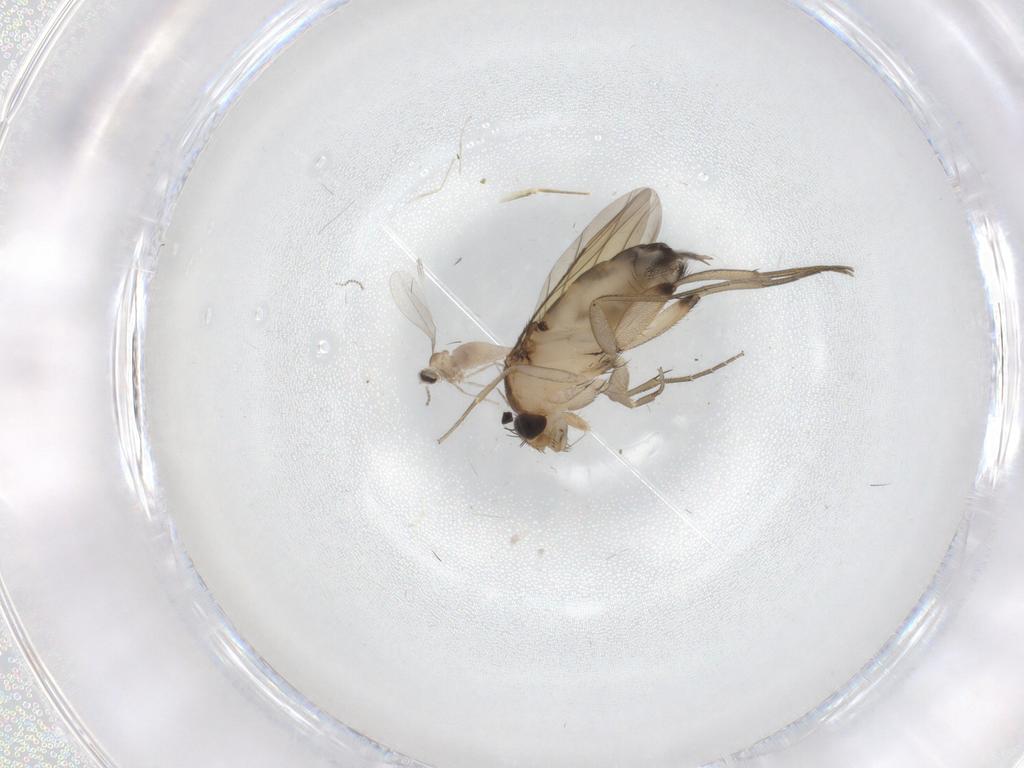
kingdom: Animalia
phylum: Arthropoda
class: Insecta
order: Diptera
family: Phoridae
